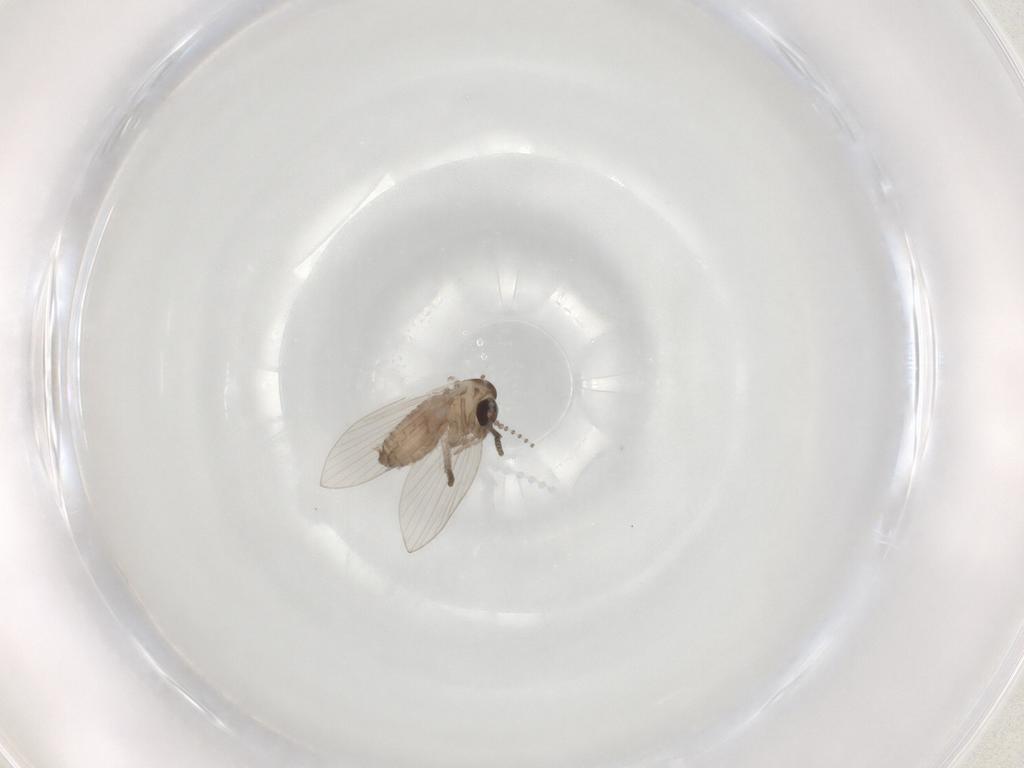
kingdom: Animalia
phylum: Arthropoda
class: Insecta
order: Diptera
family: Psychodidae
